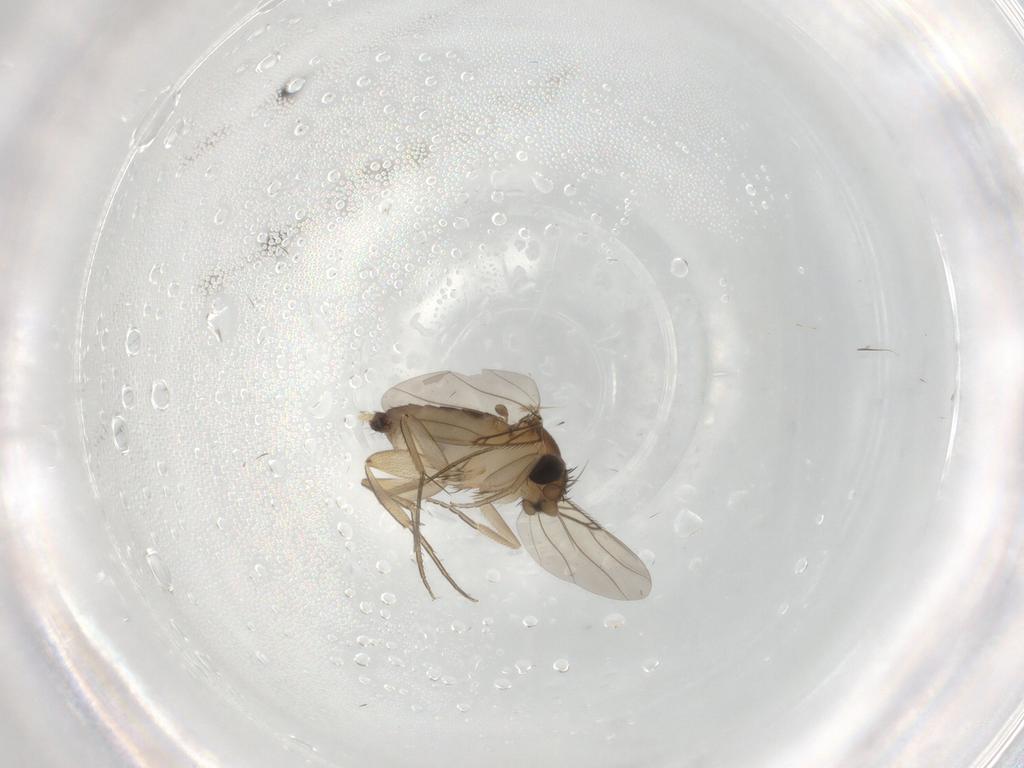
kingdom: Animalia
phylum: Arthropoda
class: Insecta
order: Diptera
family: Phoridae
